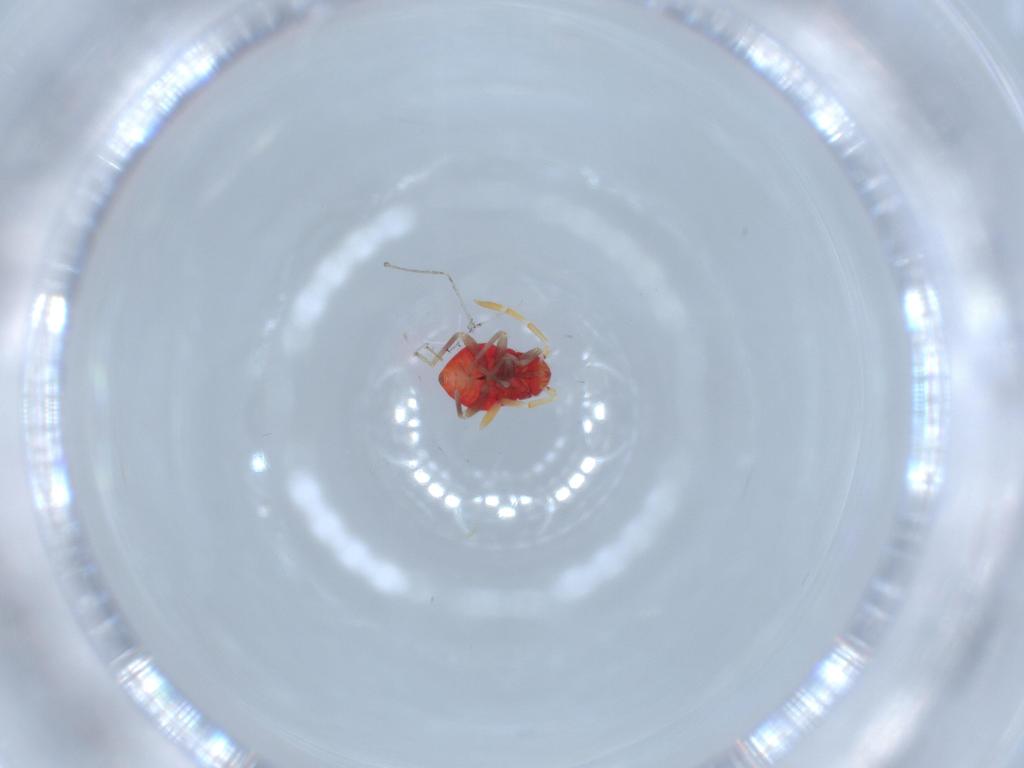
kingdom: Animalia
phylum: Arthropoda
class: Insecta
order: Hemiptera
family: Miridae
